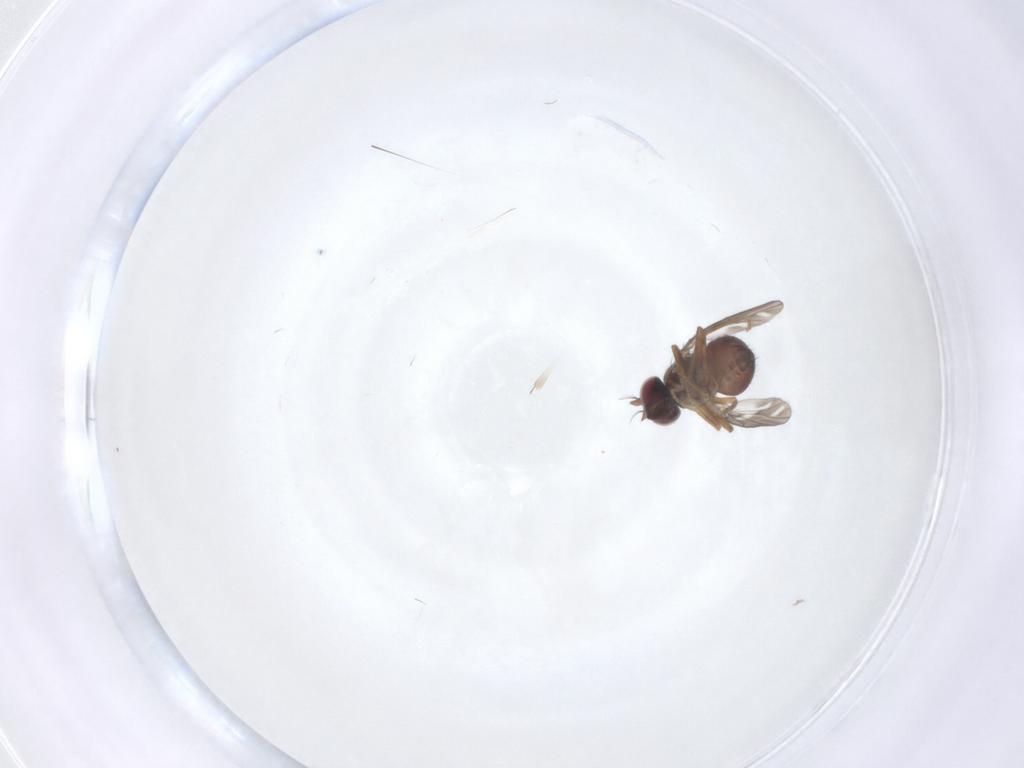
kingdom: Animalia
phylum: Arthropoda
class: Insecta
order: Diptera
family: Ephydridae
